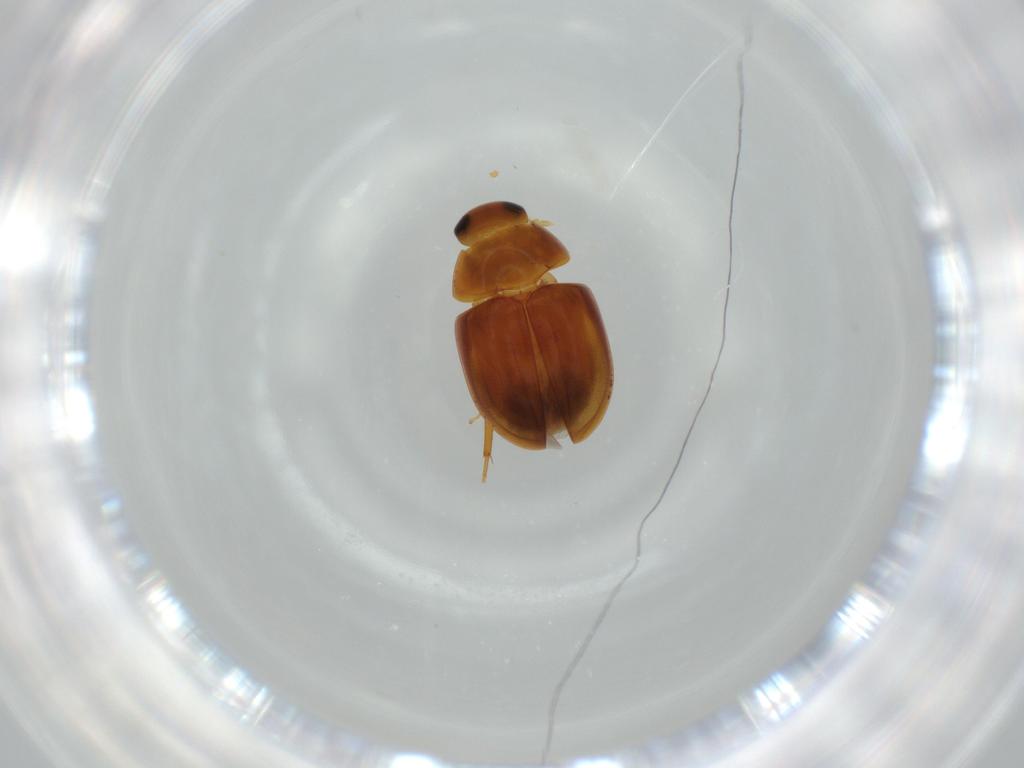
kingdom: Animalia
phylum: Arthropoda
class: Insecta
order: Coleoptera
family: Phalacridae
